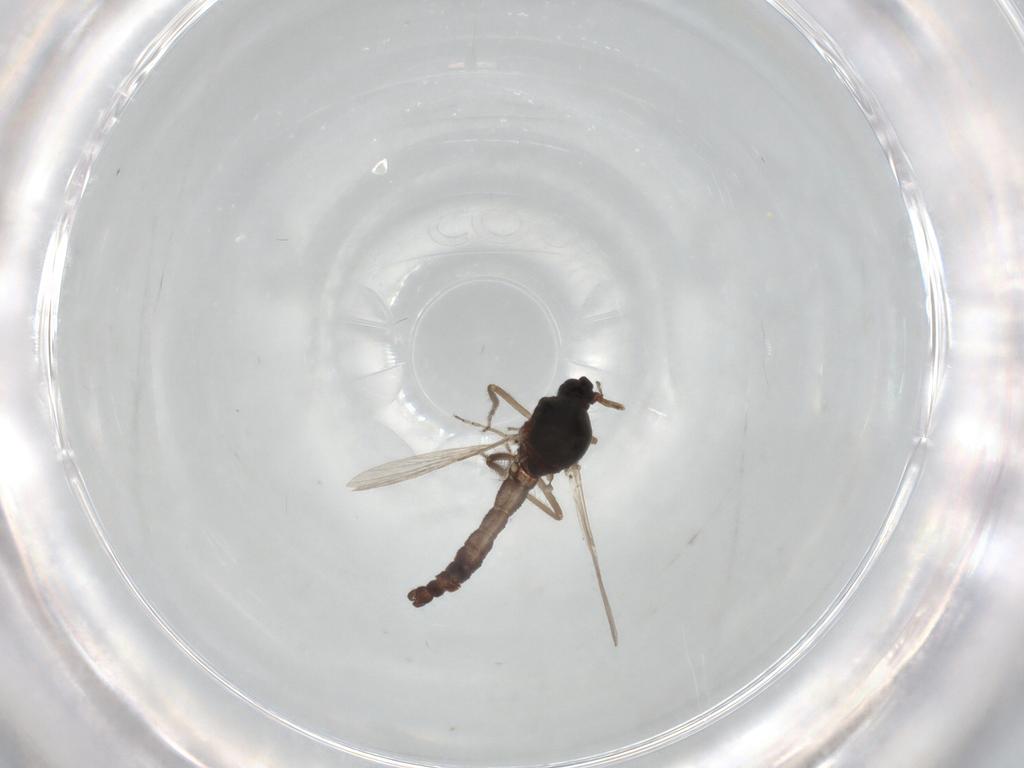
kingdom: Animalia
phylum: Arthropoda
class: Insecta
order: Diptera
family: Ceratopogonidae
